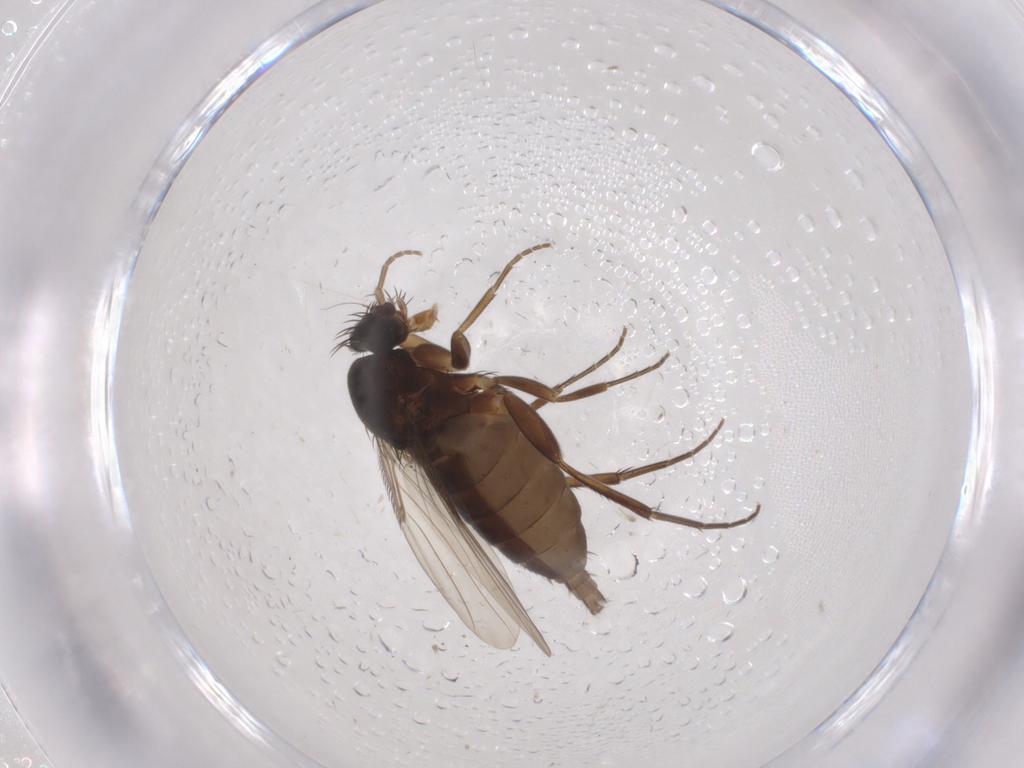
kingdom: Animalia
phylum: Arthropoda
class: Insecta
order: Diptera
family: Phoridae
